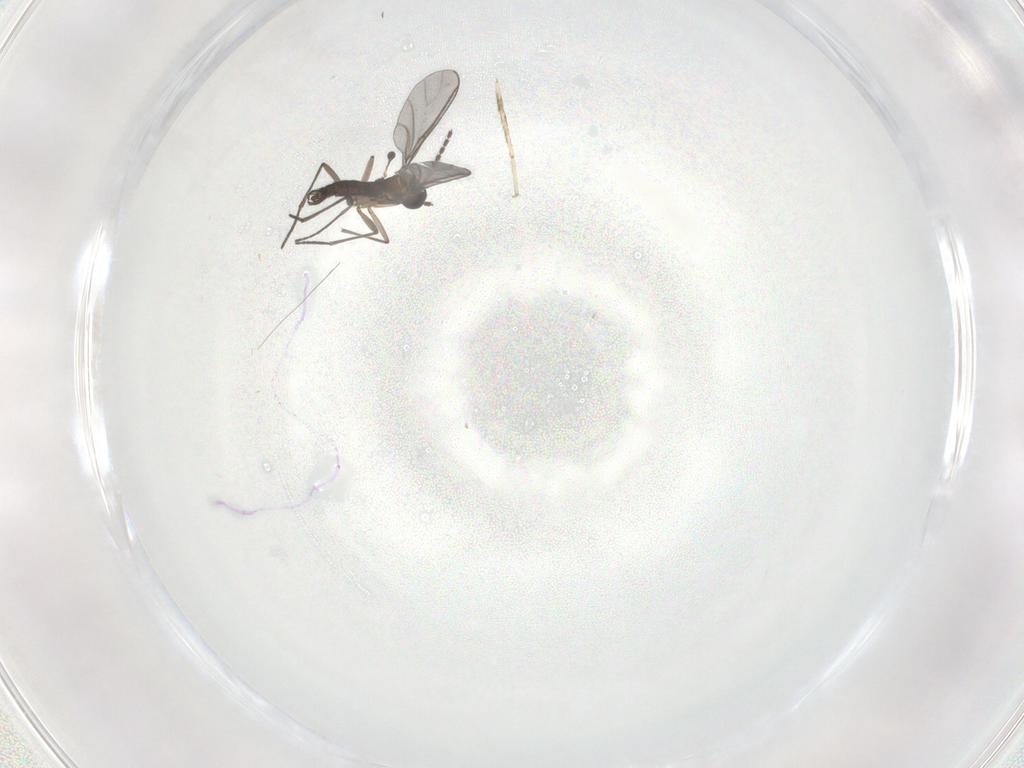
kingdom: Animalia
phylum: Arthropoda
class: Insecta
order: Diptera
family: Cecidomyiidae
